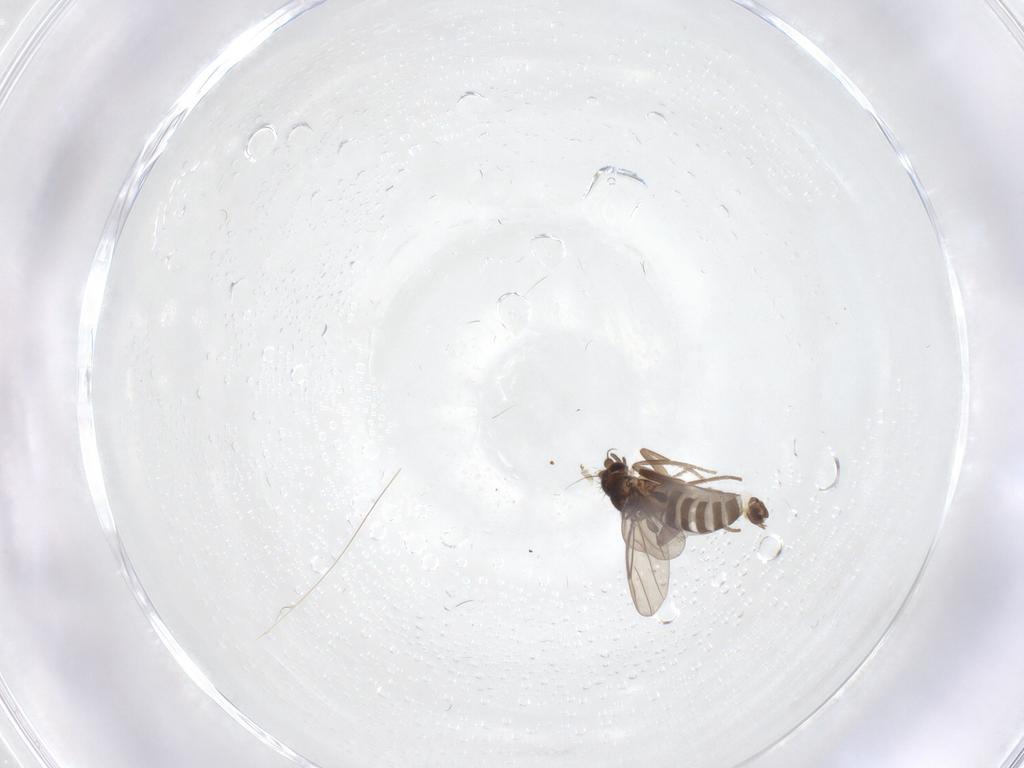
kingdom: Animalia
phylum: Arthropoda
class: Insecta
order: Diptera
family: Phoridae
